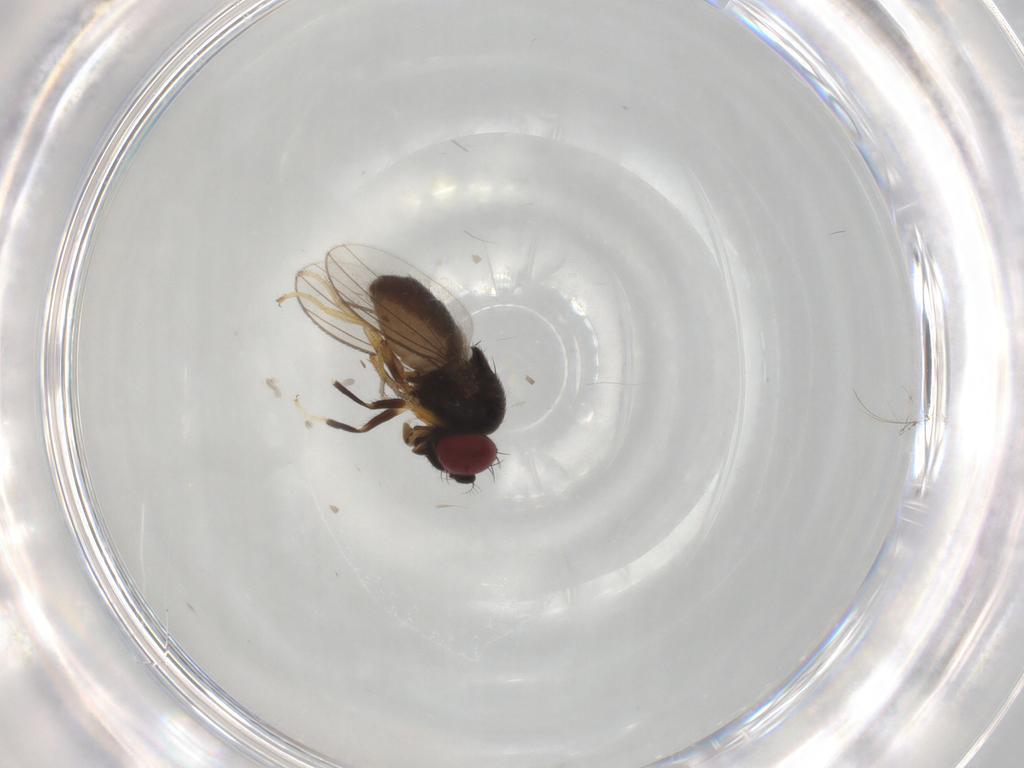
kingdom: Animalia
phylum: Arthropoda
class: Insecta
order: Diptera
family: Ephydridae
